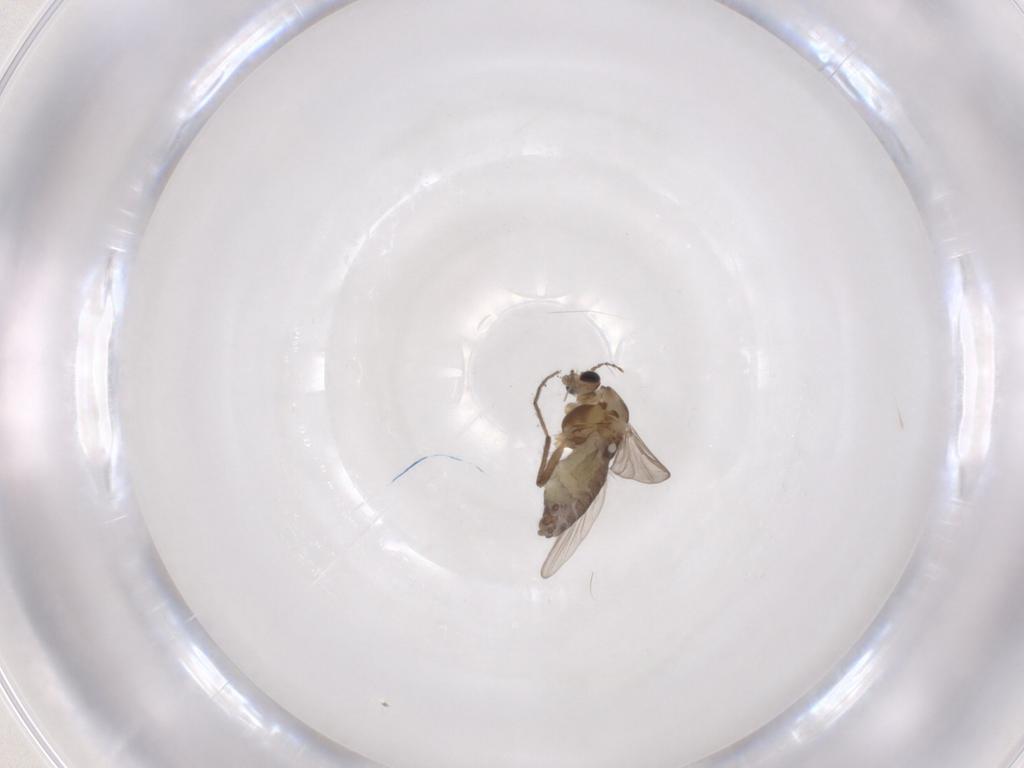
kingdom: Animalia
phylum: Arthropoda
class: Insecta
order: Diptera
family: Chironomidae
